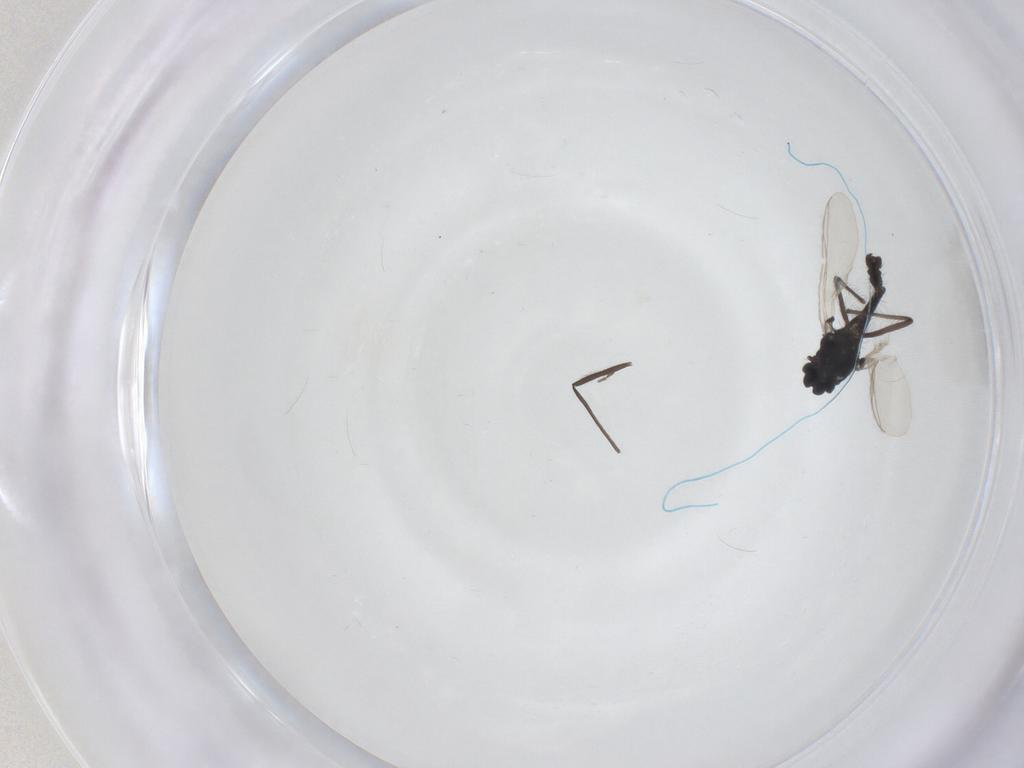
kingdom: Animalia
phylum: Arthropoda
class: Insecta
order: Diptera
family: Chironomidae
